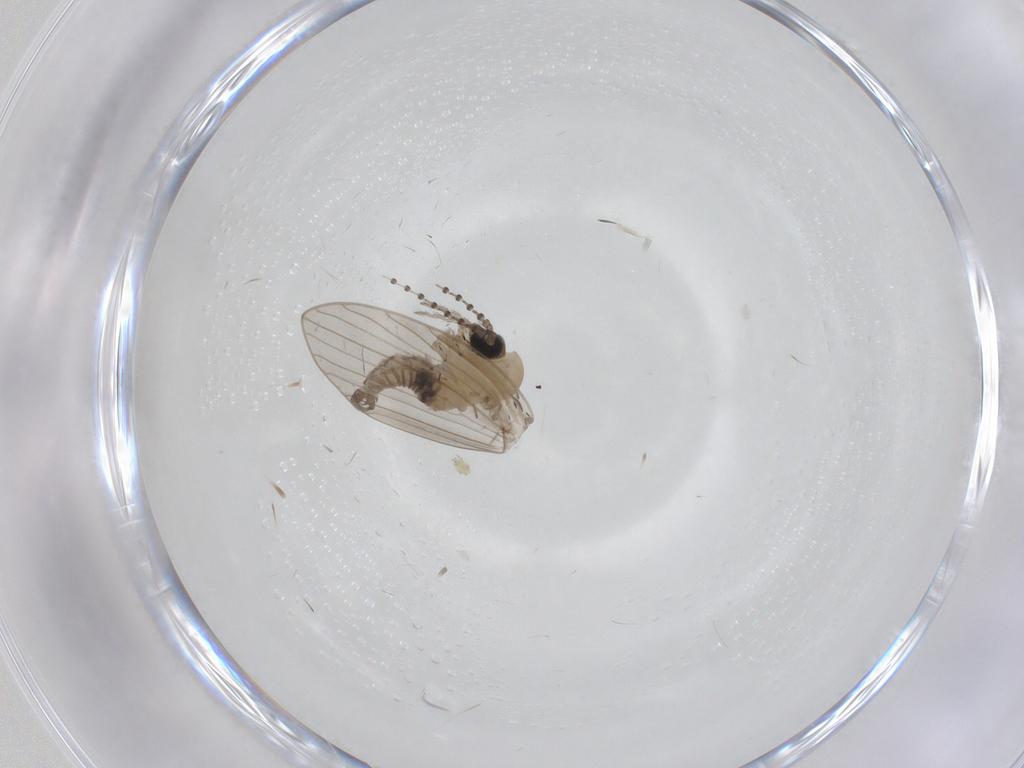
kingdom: Animalia
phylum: Arthropoda
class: Insecta
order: Diptera
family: Psychodidae
